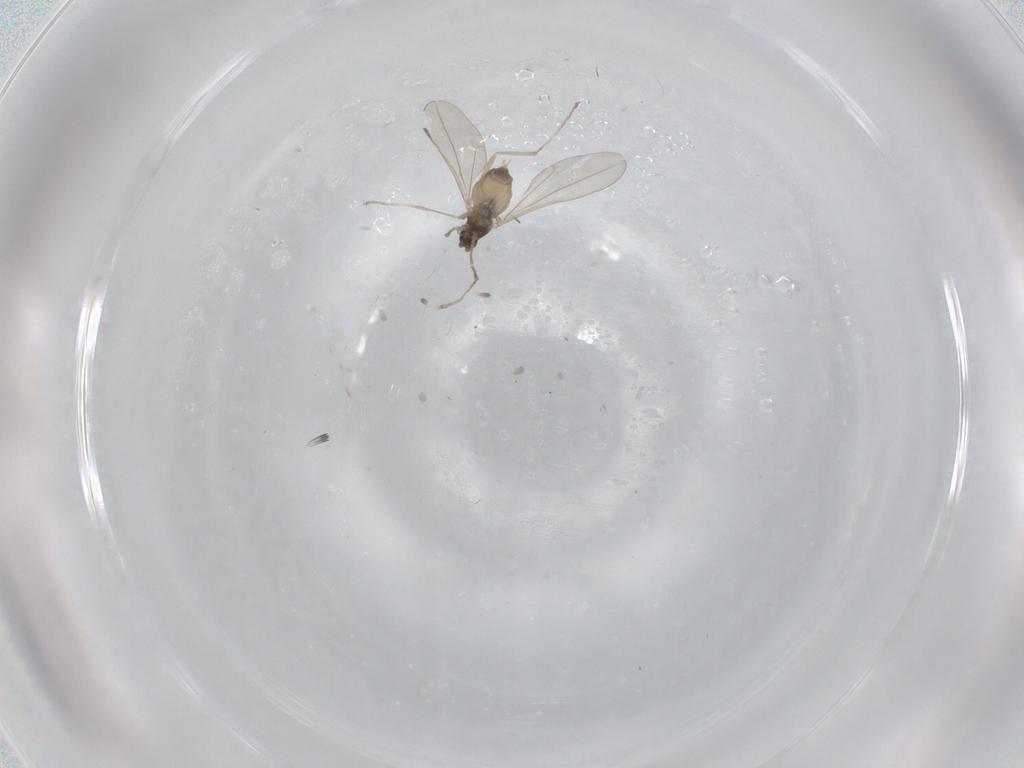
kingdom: Animalia
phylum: Arthropoda
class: Insecta
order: Diptera
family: Cecidomyiidae
